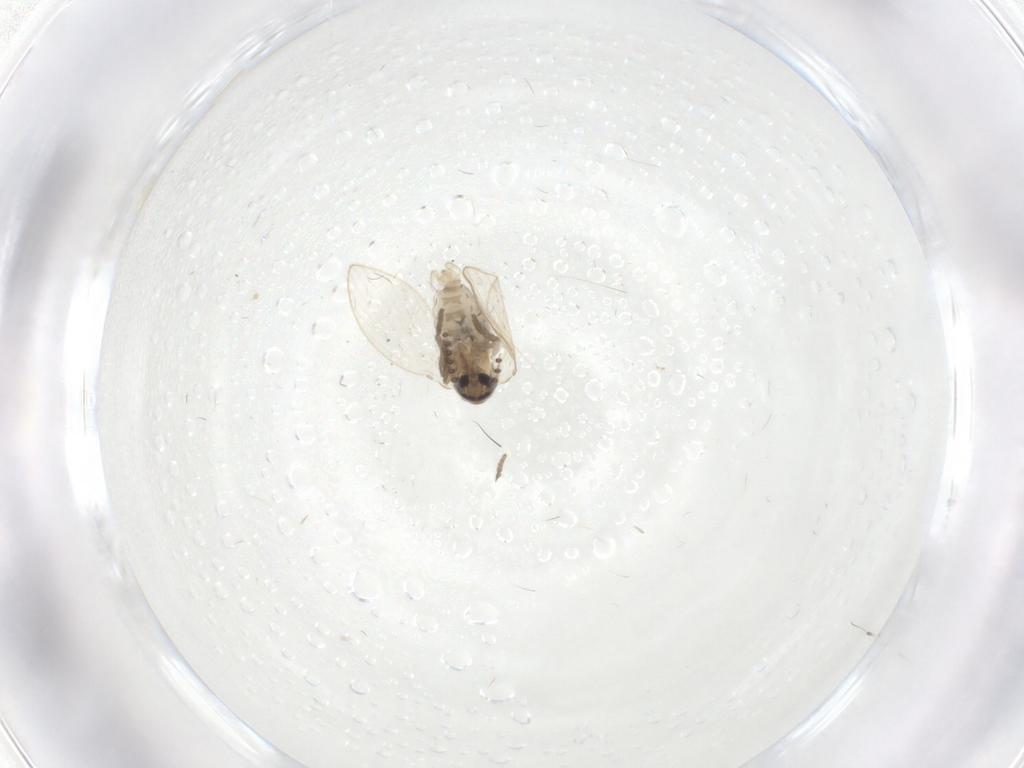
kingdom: Animalia
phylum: Arthropoda
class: Insecta
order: Diptera
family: Psychodidae
